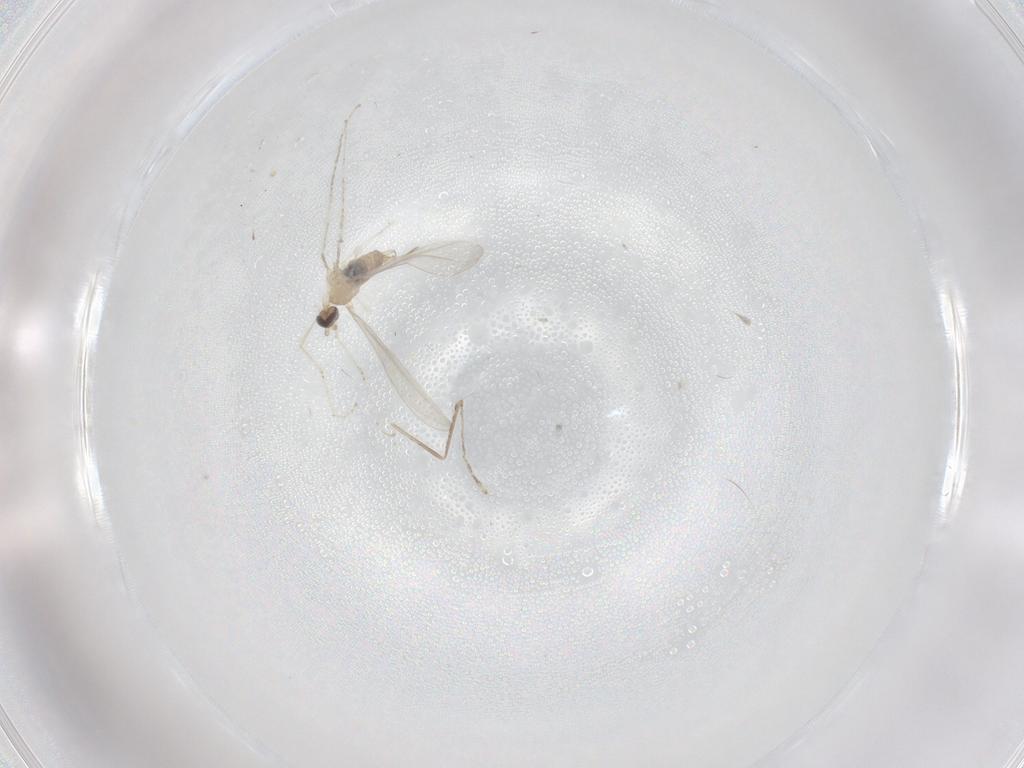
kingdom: Animalia
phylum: Arthropoda
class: Insecta
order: Diptera
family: Cecidomyiidae
